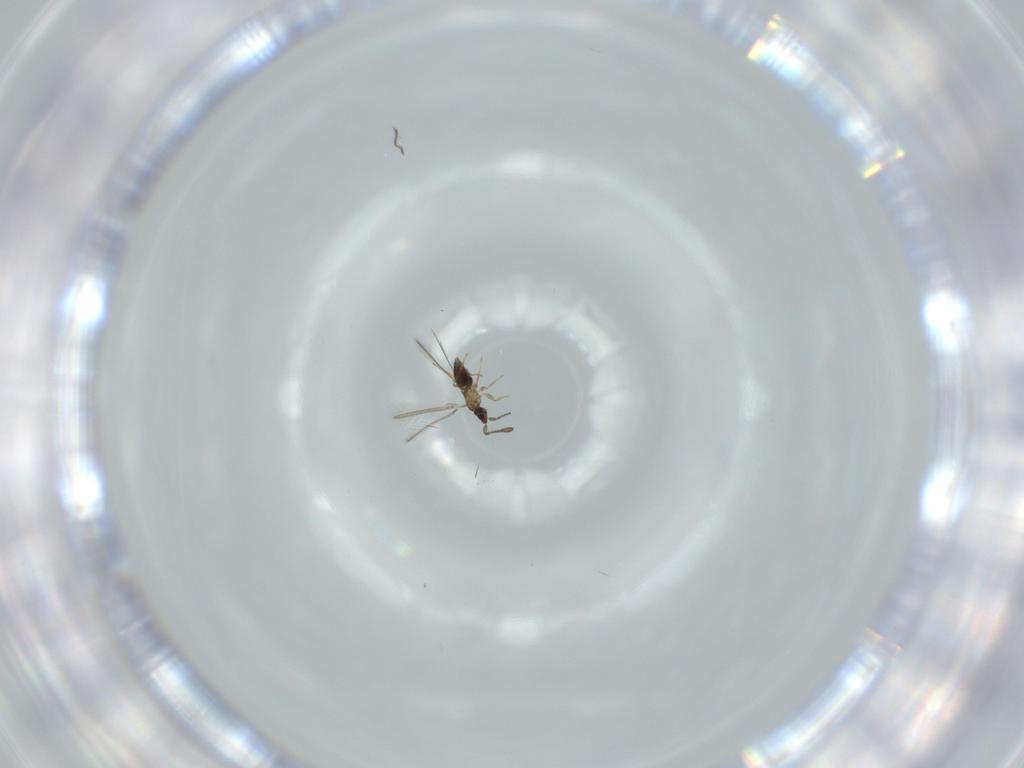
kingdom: Animalia
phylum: Arthropoda
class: Insecta
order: Hymenoptera
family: Mymaridae
